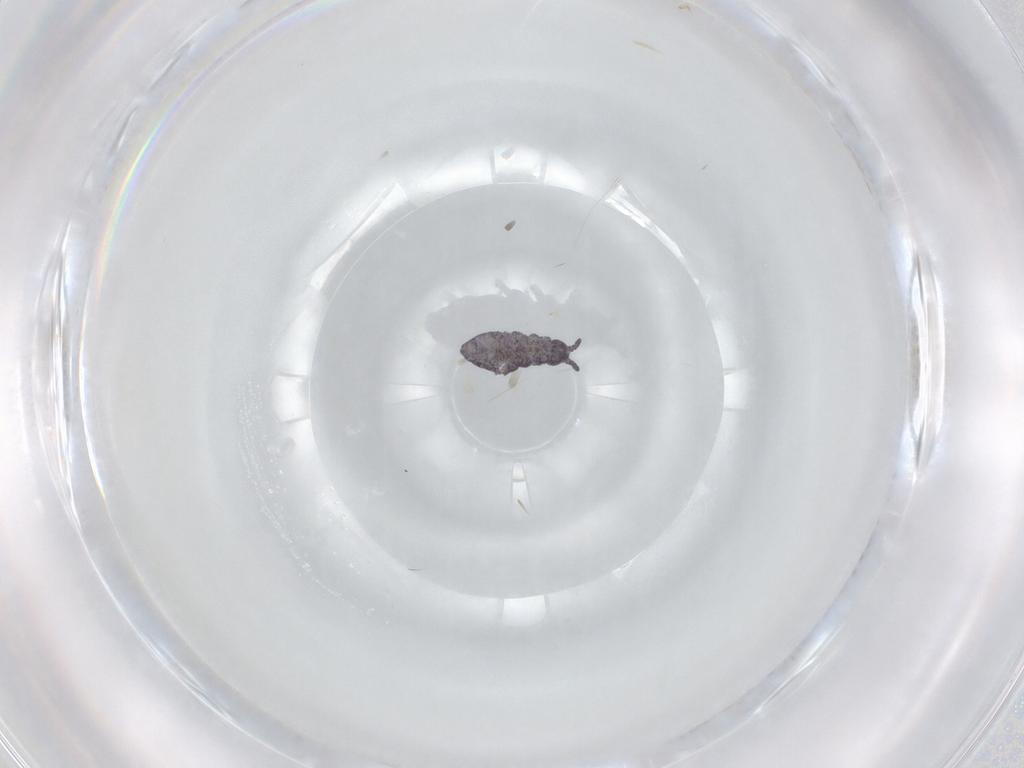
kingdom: Animalia
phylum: Arthropoda
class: Collembola
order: Poduromorpha
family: Brachystomellidae
